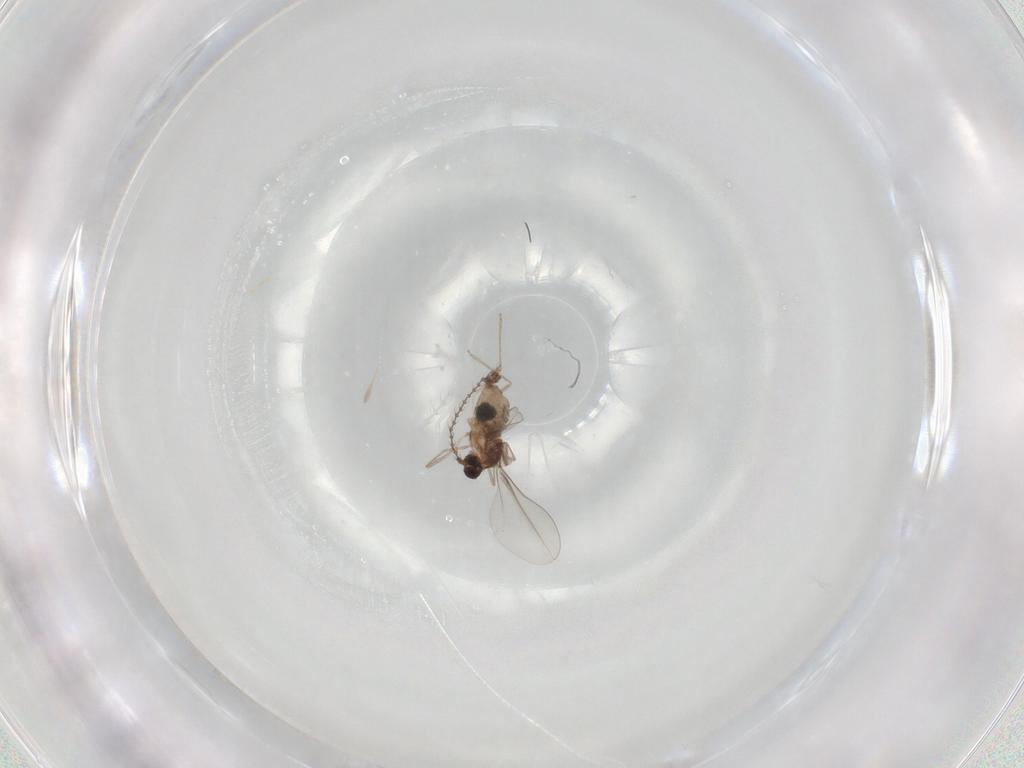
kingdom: Animalia
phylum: Arthropoda
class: Insecta
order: Diptera
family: Cecidomyiidae
